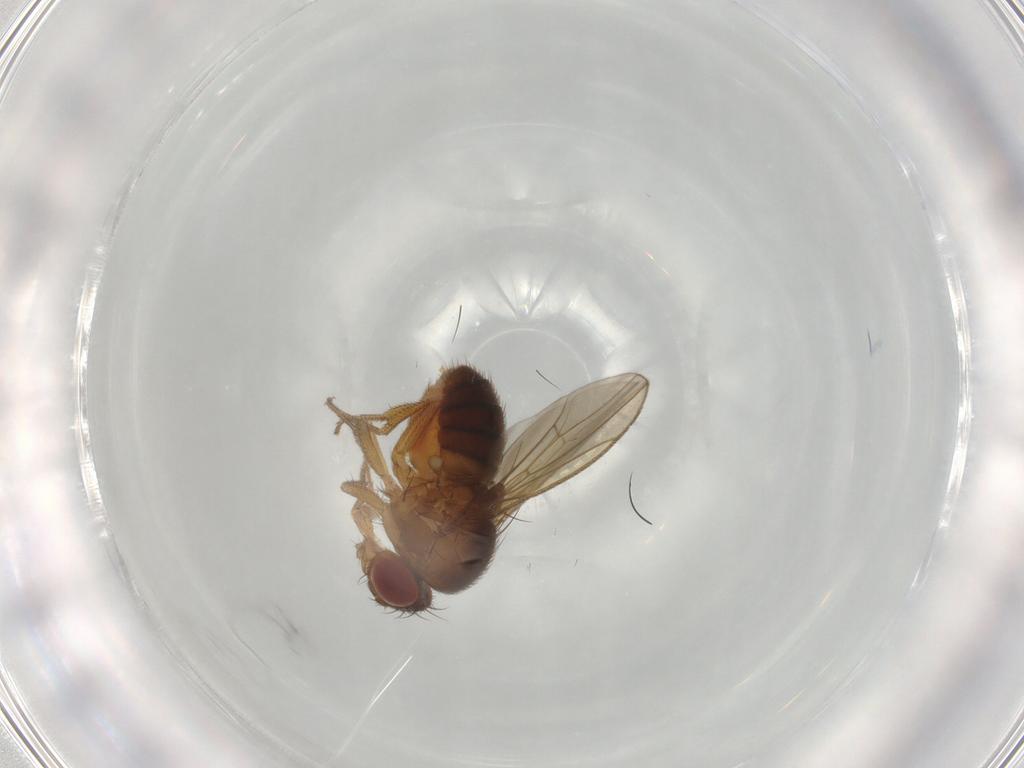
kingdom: Animalia
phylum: Arthropoda
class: Insecta
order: Diptera
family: Drosophilidae
